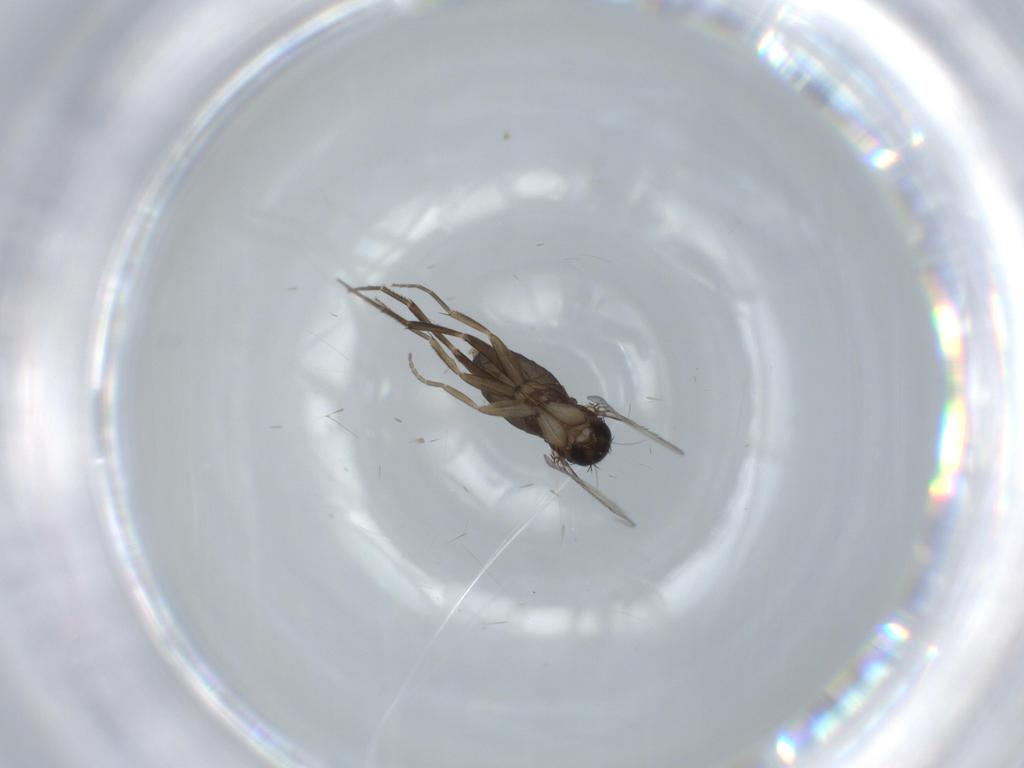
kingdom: Animalia
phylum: Arthropoda
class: Insecta
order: Diptera
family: Phoridae
